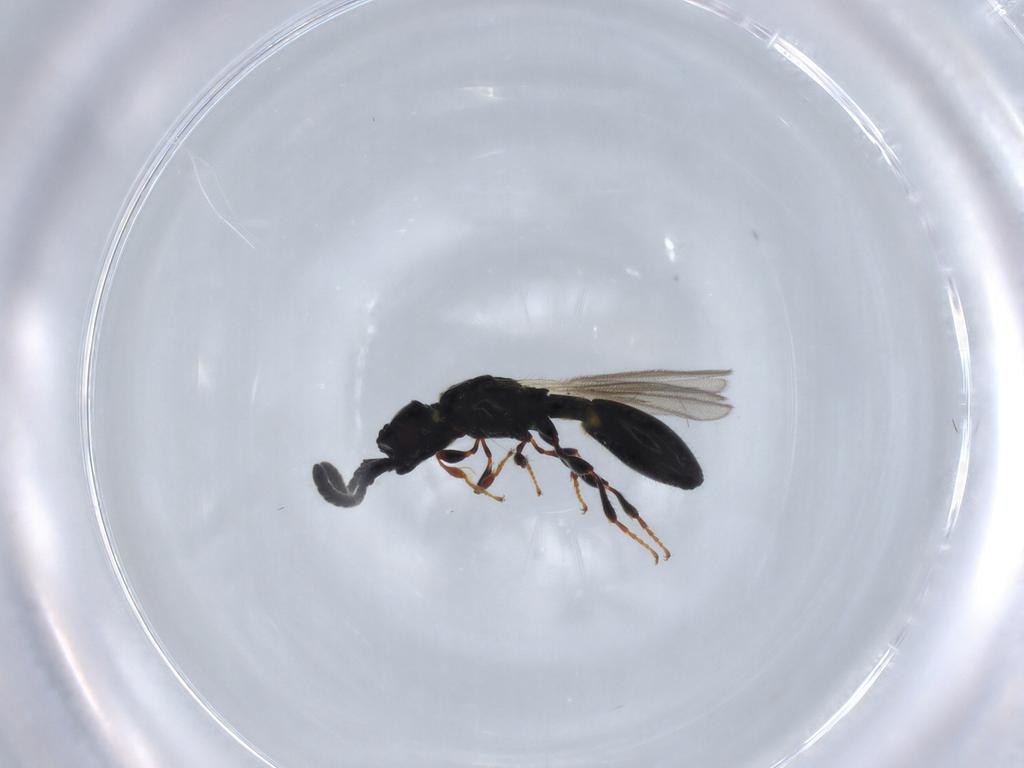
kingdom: Animalia
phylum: Arthropoda
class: Insecta
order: Hymenoptera
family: Diapriidae
